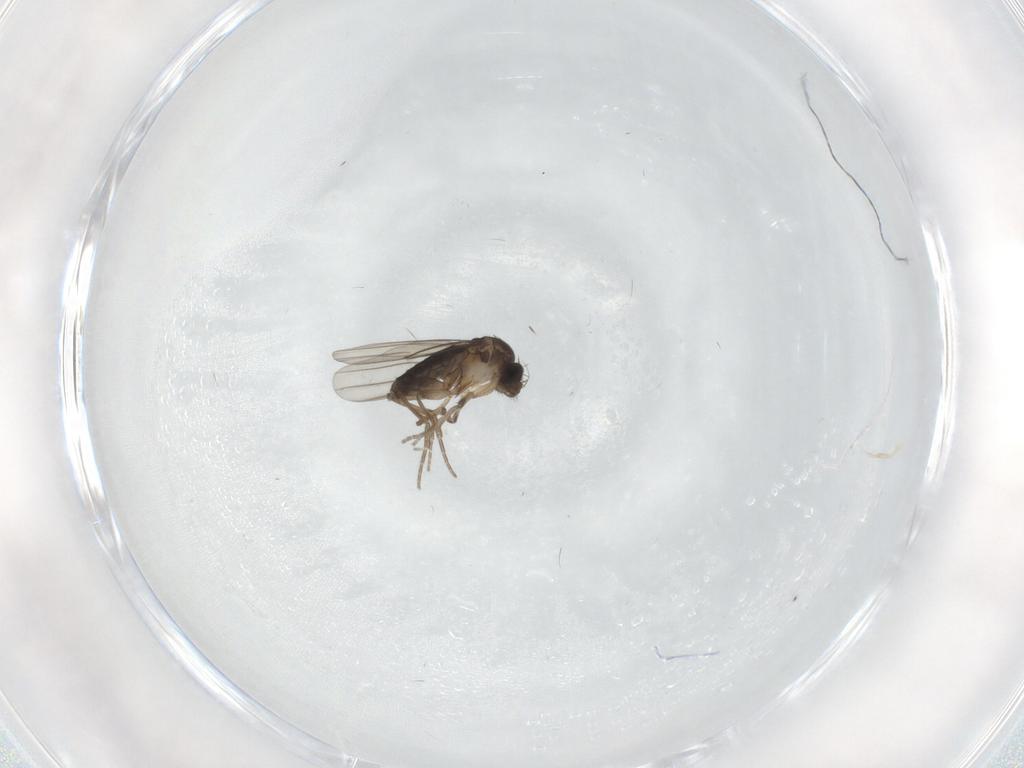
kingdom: Animalia
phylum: Arthropoda
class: Insecta
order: Diptera
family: Phoridae
